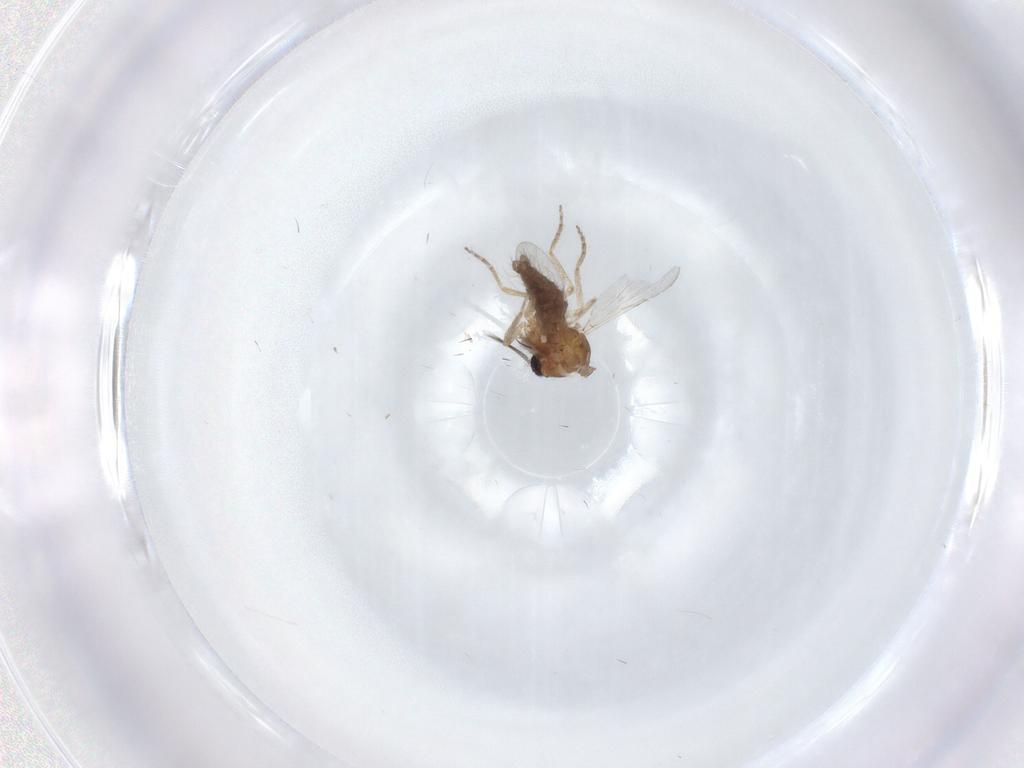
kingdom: Animalia
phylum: Arthropoda
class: Insecta
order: Diptera
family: Ceratopogonidae
